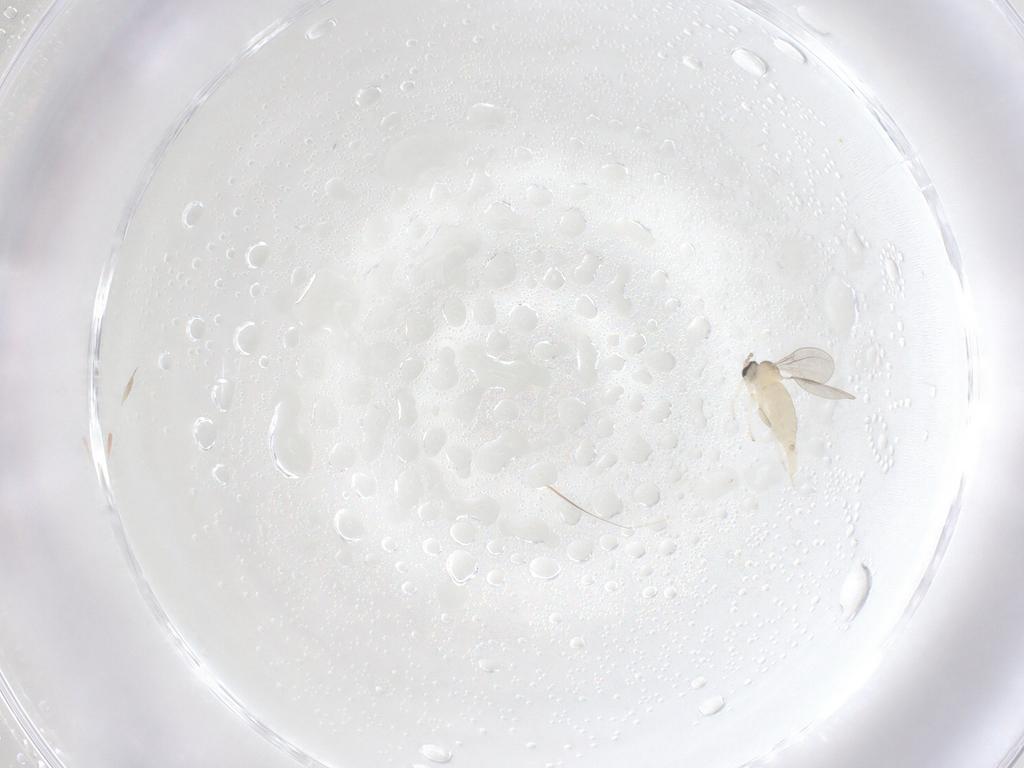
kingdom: Animalia
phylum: Arthropoda
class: Insecta
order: Diptera
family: Cecidomyiidae
